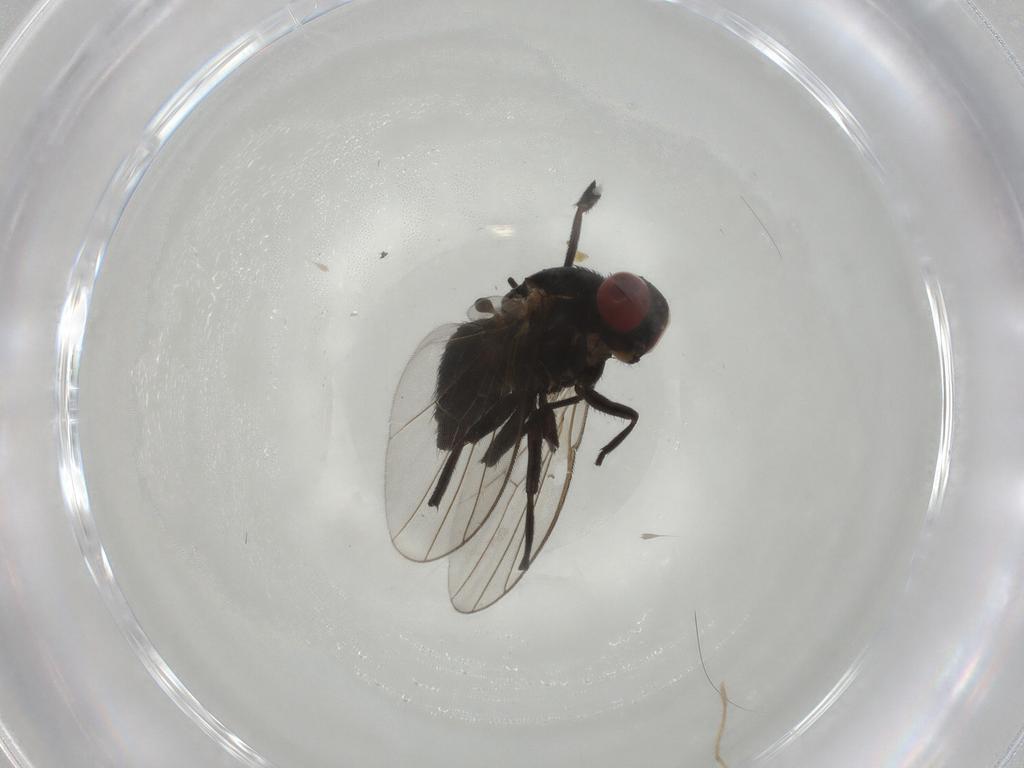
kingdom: Animalia
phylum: Arthropoda
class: Insecta
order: Diptera
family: Agromyzidae
